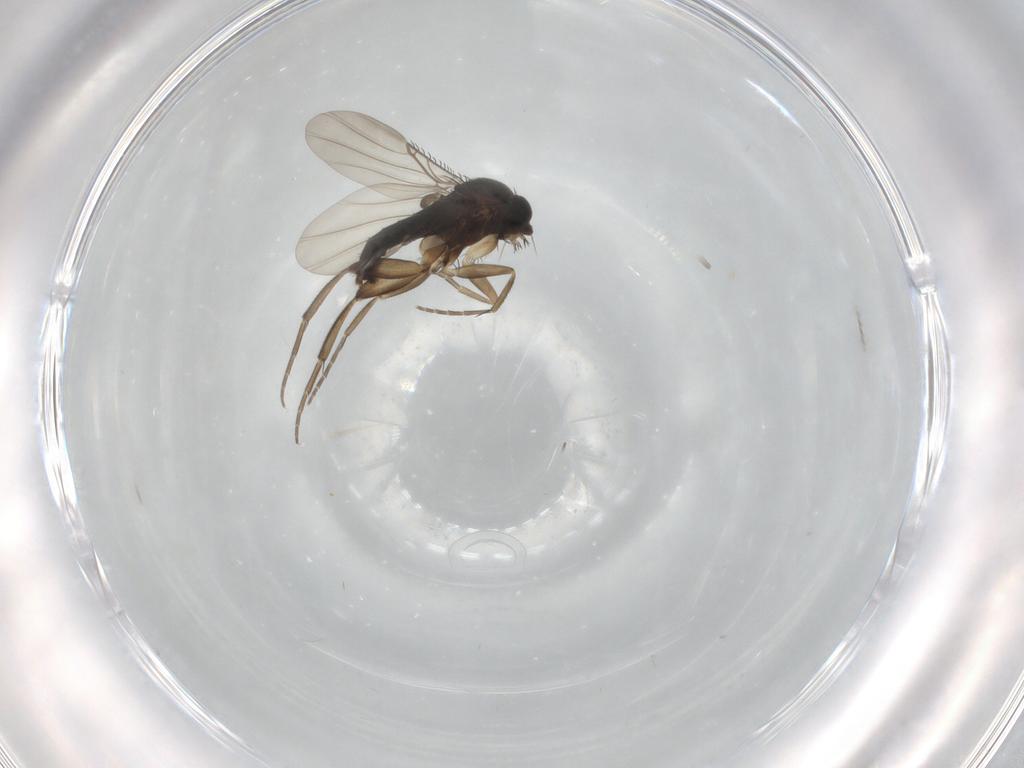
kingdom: Animalia
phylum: Arthropoda
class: Insecta
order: Diptera
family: Phoridae
